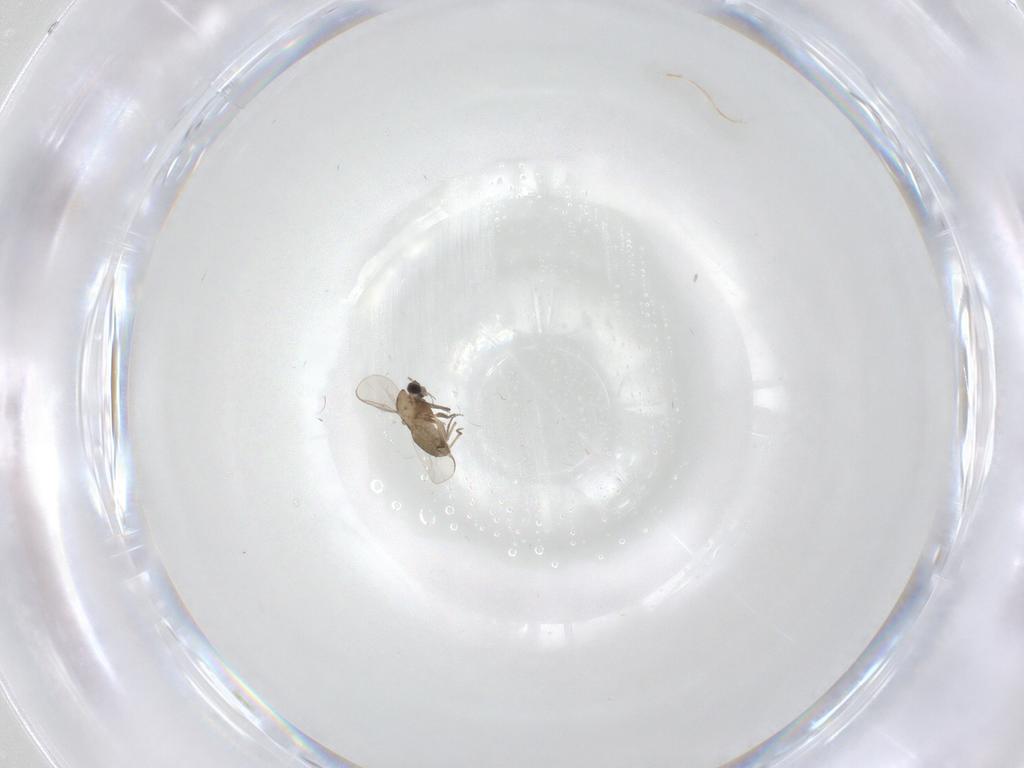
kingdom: Animalia
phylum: Arthropoda
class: Insecta
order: Diptera
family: Chironomidae
